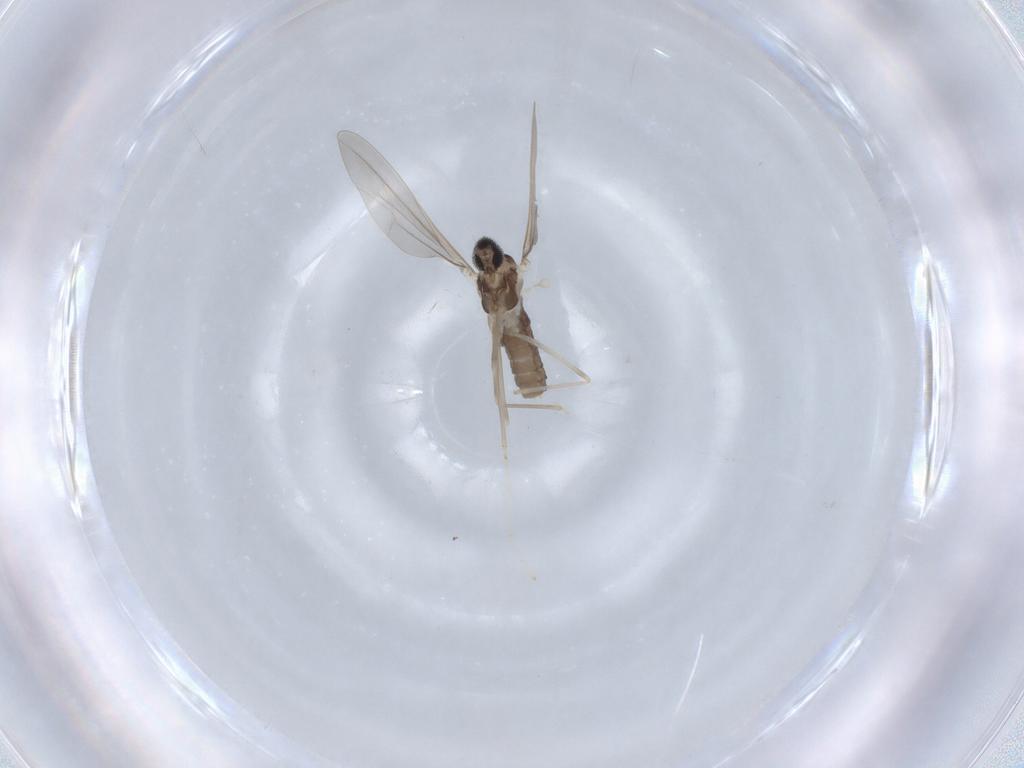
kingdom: Animalia
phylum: Arthropoda
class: Insecta
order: Diptera
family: Cecidomyiidae
